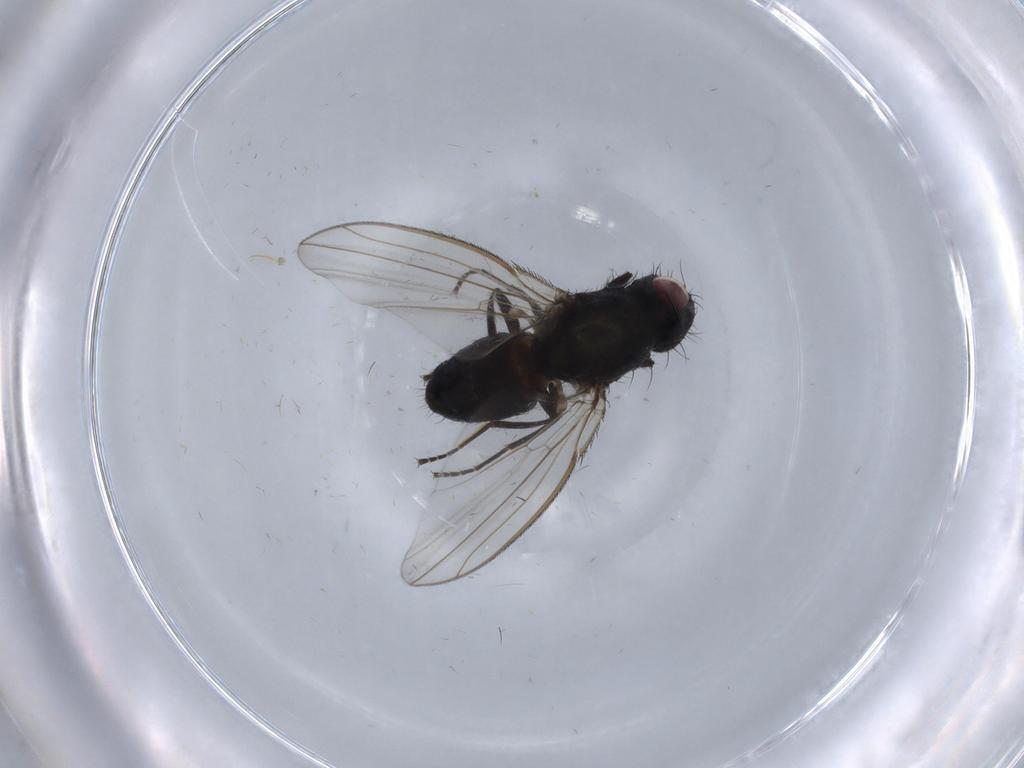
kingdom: Animalia
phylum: Arthropoda
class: Insecta
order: Diptera
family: Carnidae
